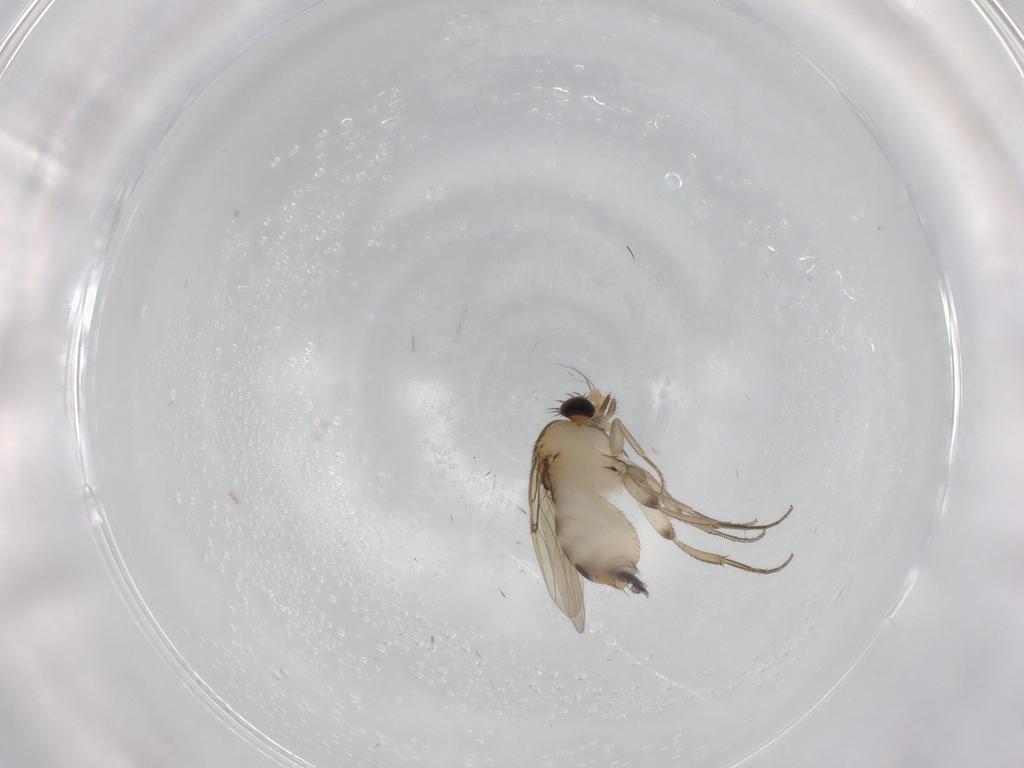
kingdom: Animalia
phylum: Arthropoda
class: Insecta
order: Diptera
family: Phoridae
